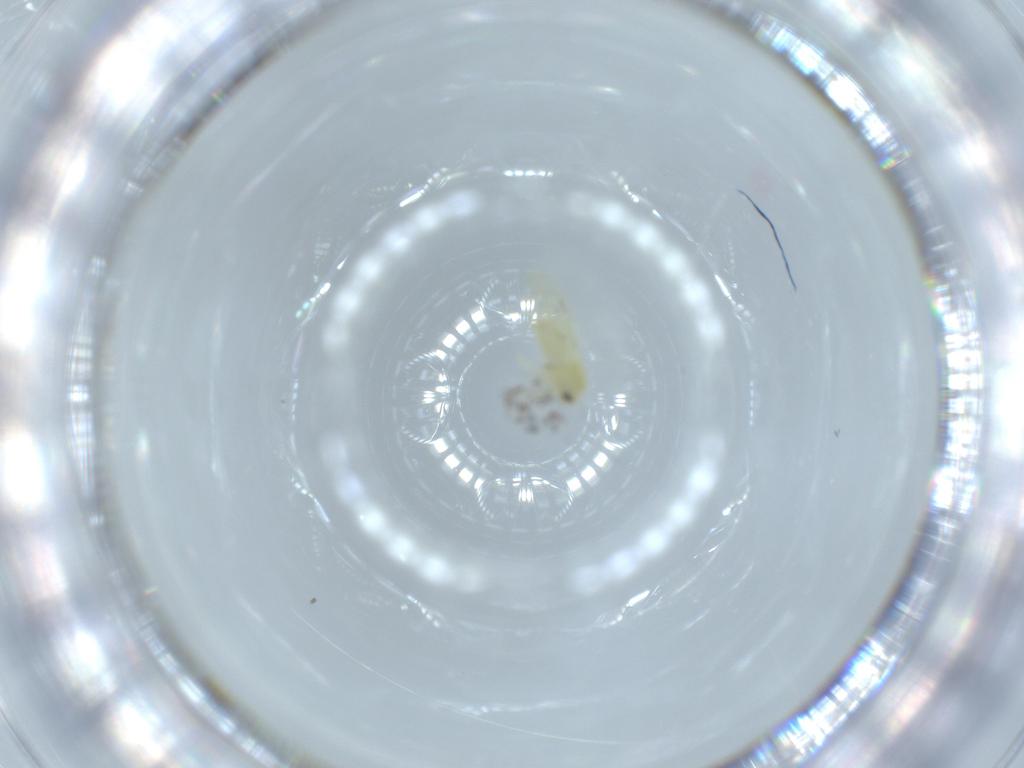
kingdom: Animalia
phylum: Arthropoda
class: Insecta
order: Hemiptera
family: Aleyrodidae
